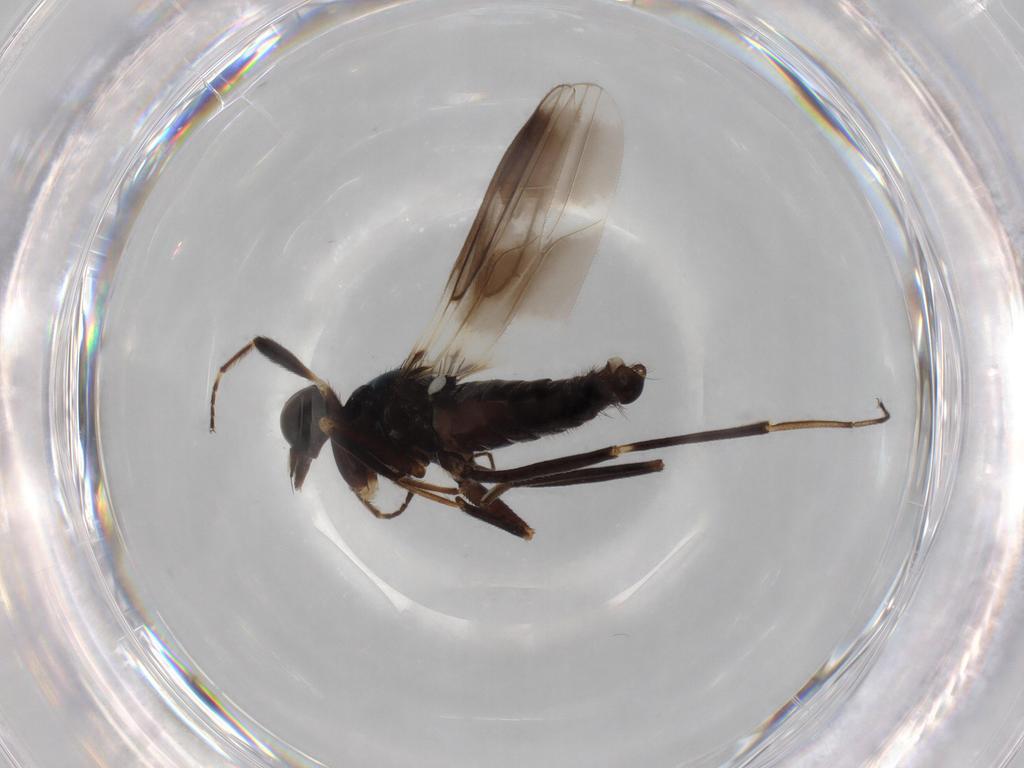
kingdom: Animalia
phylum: Arthropoda
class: Insecta
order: Diptera
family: Hybotidae
